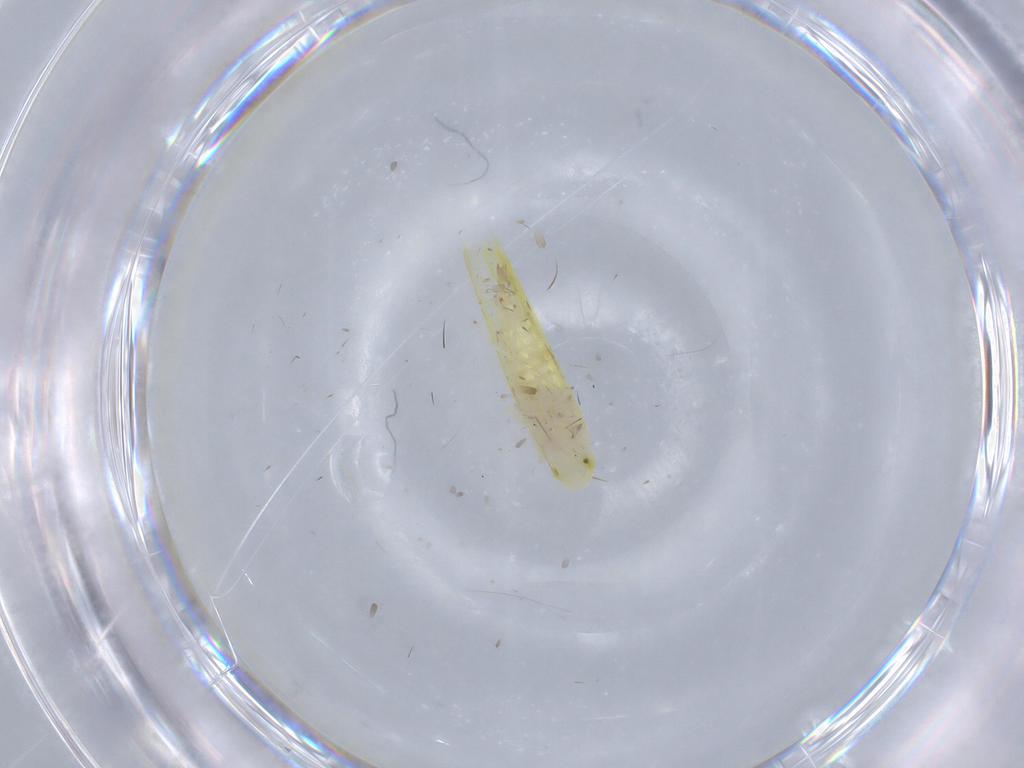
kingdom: Animalia
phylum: Arthropoda
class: Insecta
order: Hemiptera
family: Cicadellidae
